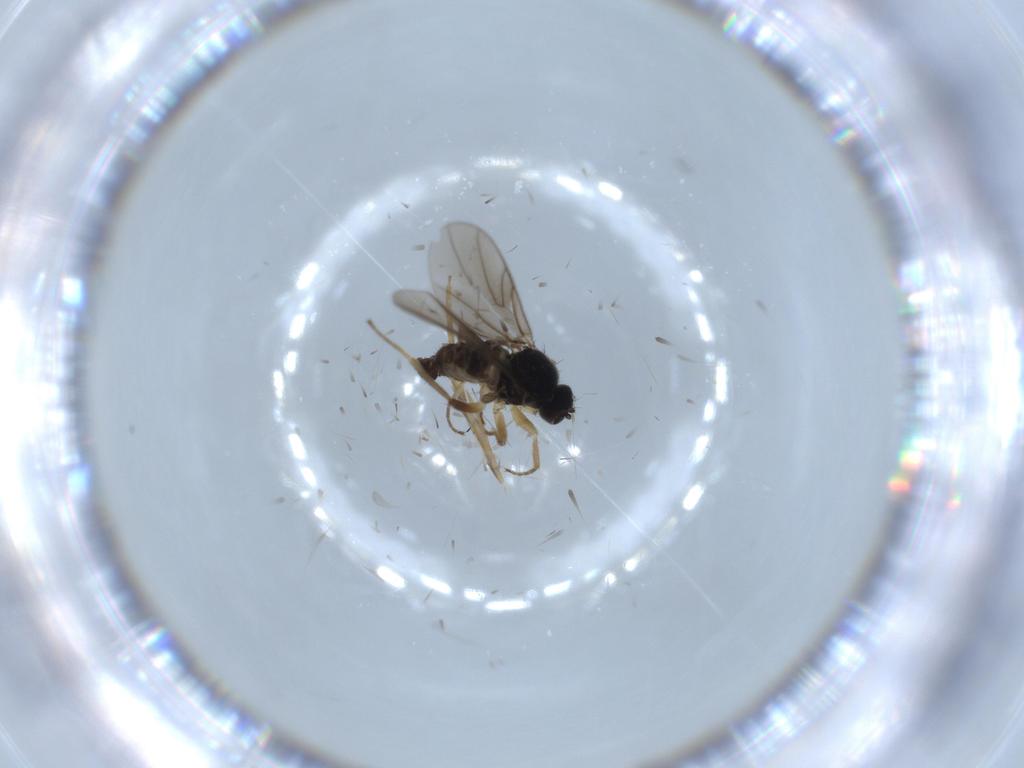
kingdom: Animalia
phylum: Arthropoda
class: Insecta
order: Diptera
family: Hybotidae
